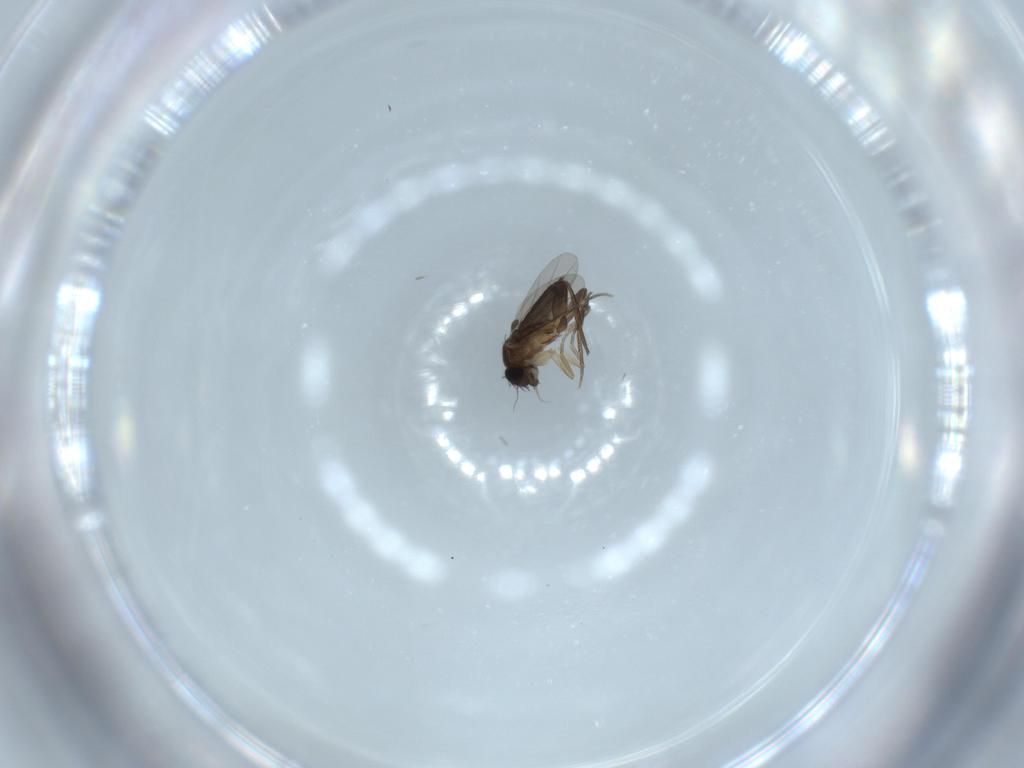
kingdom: Animalia
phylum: Arthropoda
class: Insecta
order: Diptera
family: Phoridae
